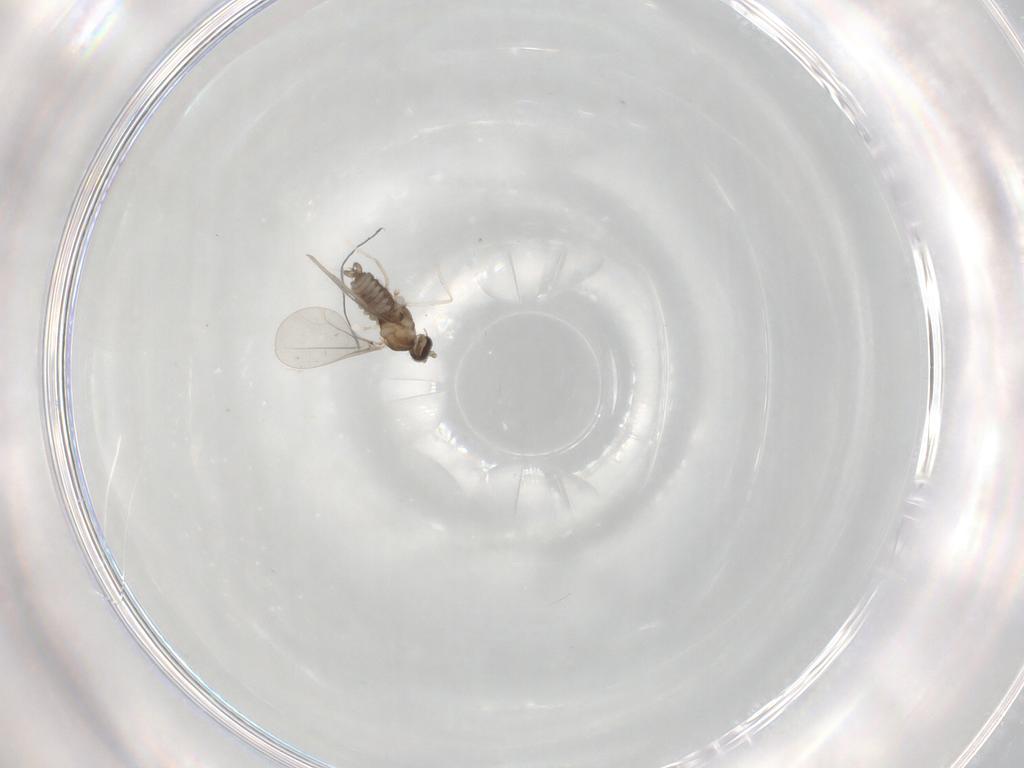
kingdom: Animalia
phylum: Arthropoda
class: Insecta
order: Diptera
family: Cecidomyiidae
